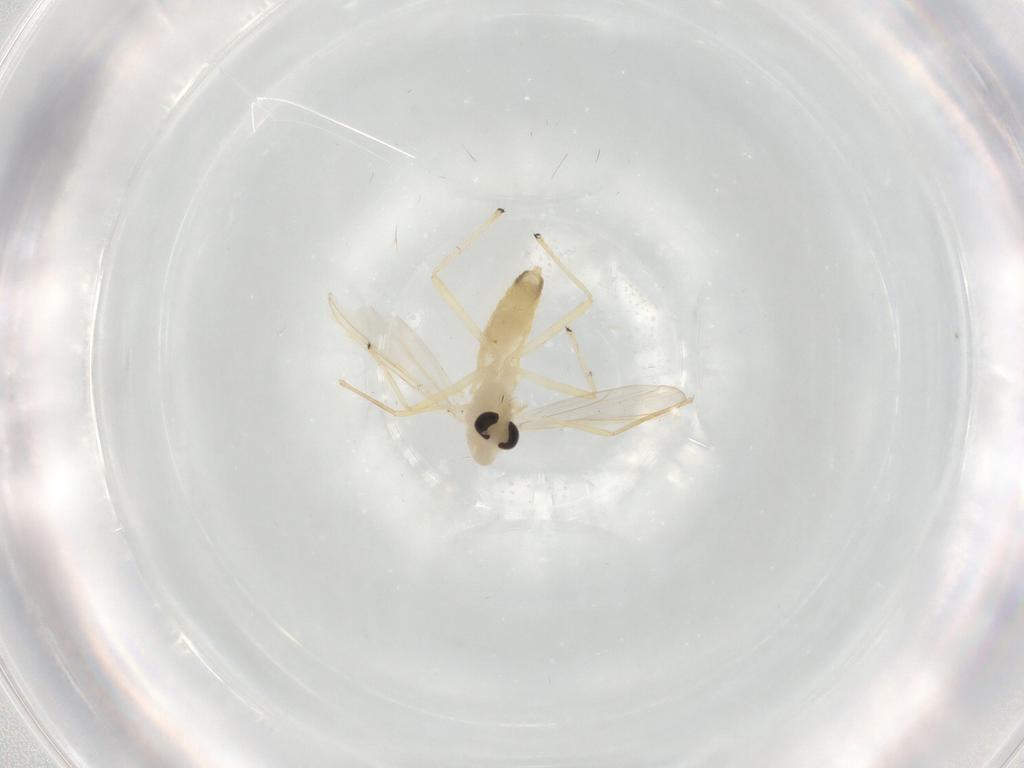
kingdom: Animalia
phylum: Arthropoda
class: Insecta
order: Diptera
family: Chironomidae
